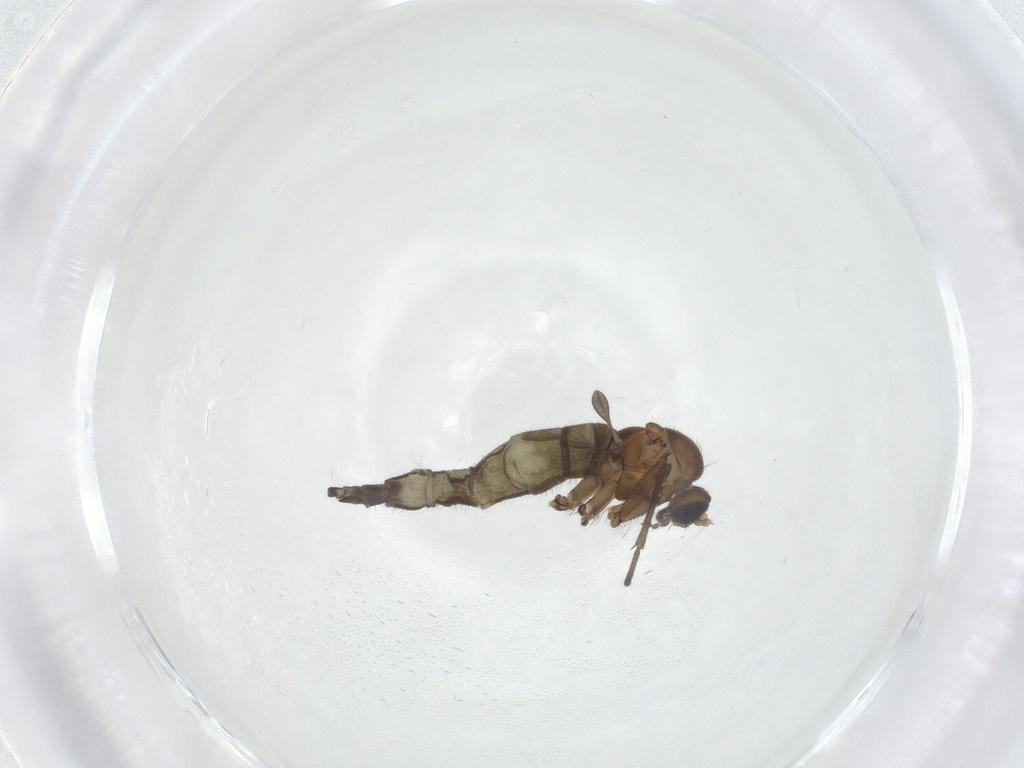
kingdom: Animalia
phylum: Arthropoda
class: Insecta
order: Diptera
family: Sciaridae
